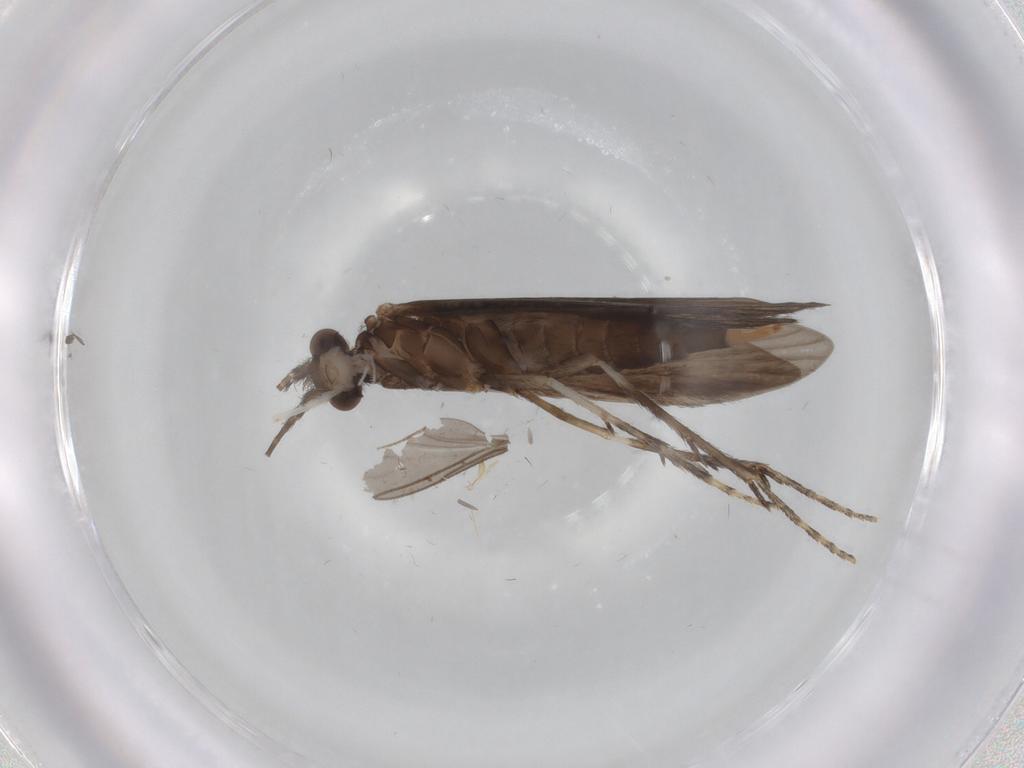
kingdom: Animalia
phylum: Arthropoda
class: Insecta
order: Trichoptera
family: Xiphocentronidae
